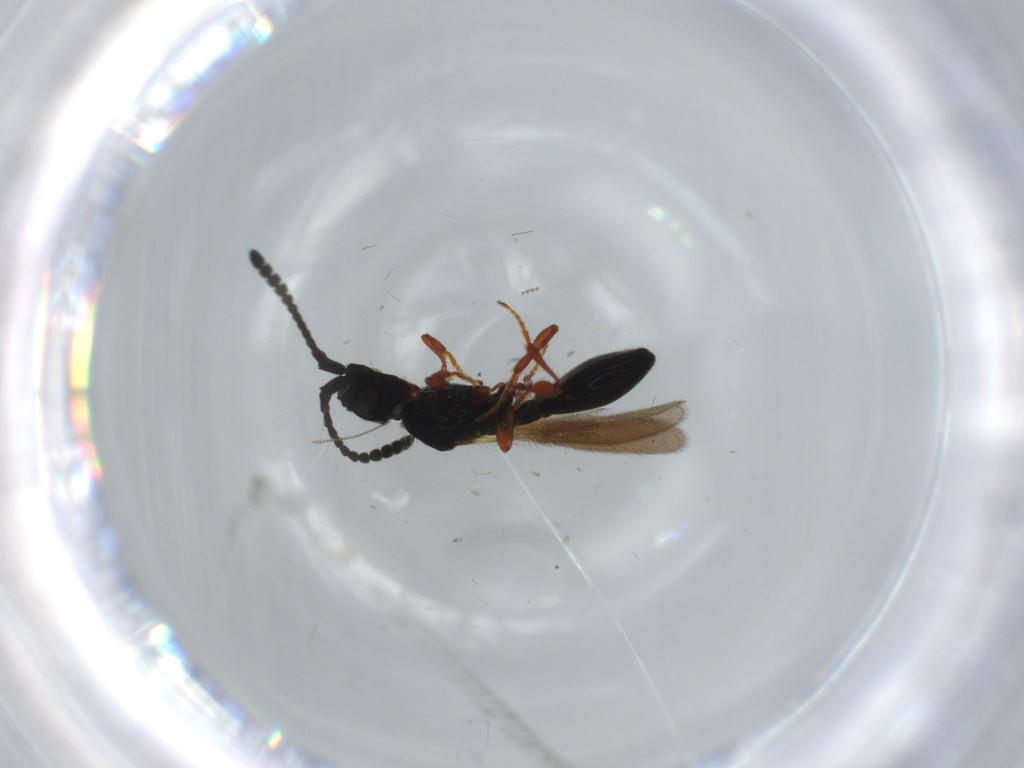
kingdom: Animalia
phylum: Arthropoda
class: Insecta
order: Hymenoptera
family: Diapriidae
